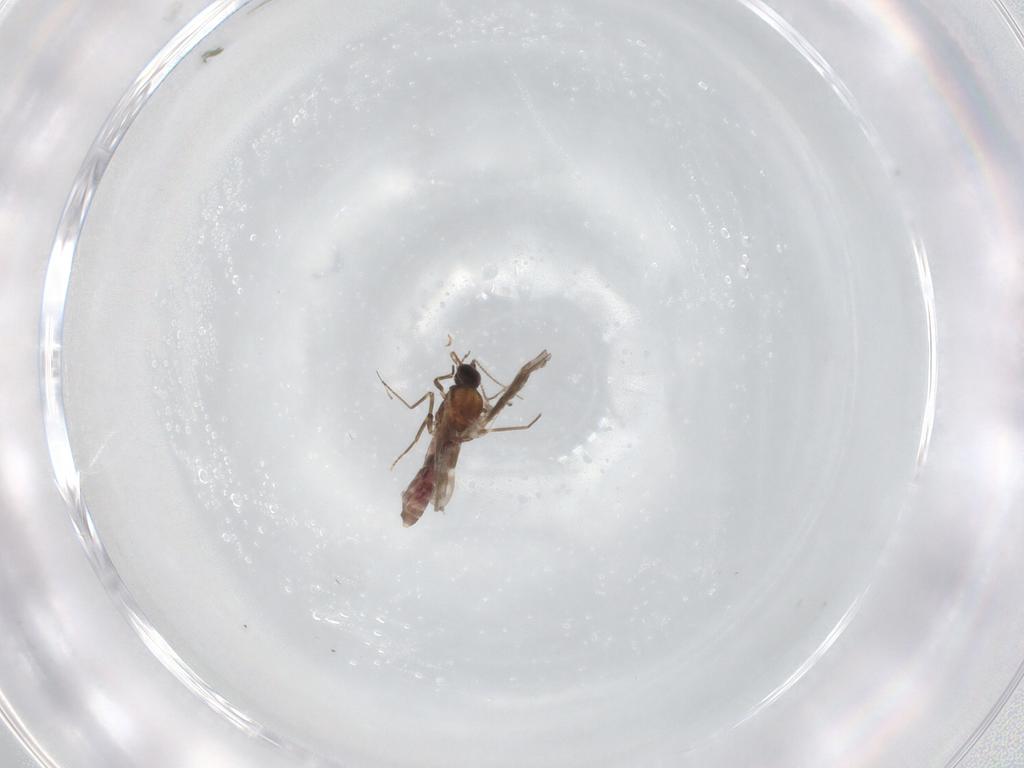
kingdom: Animalia
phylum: Arthropoda
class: Insecta
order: Diptera
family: Sciaridae
